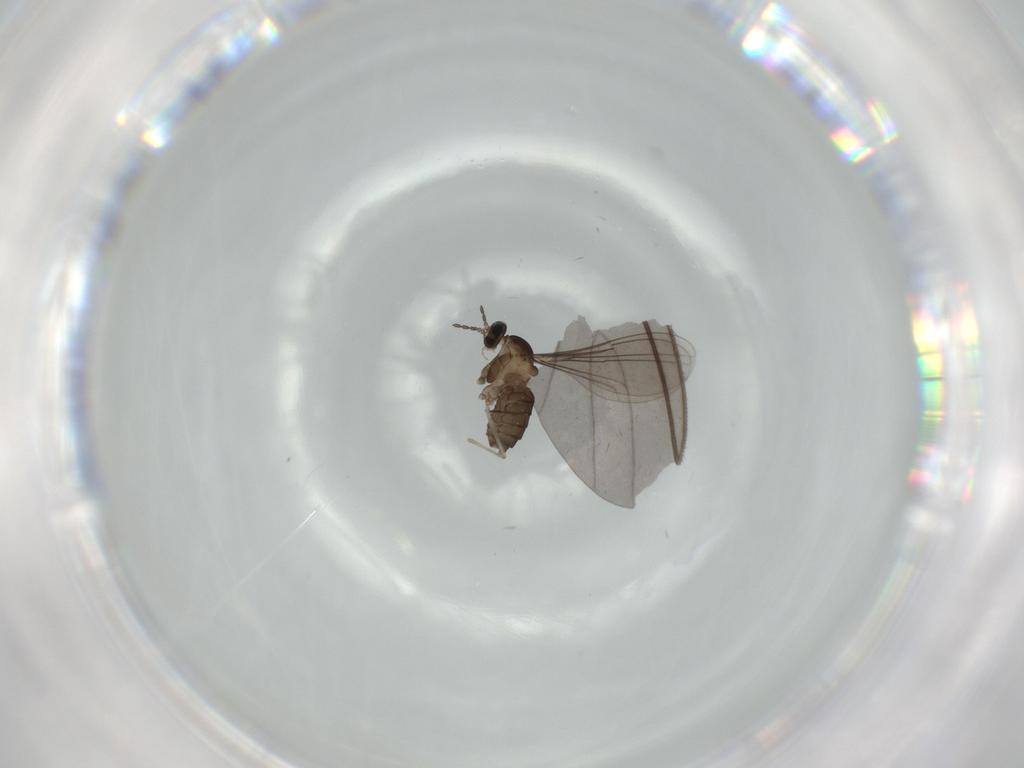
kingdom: Animalia
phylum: Arthropoda
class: Insecta
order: Diptera
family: Cecidomyiidae
